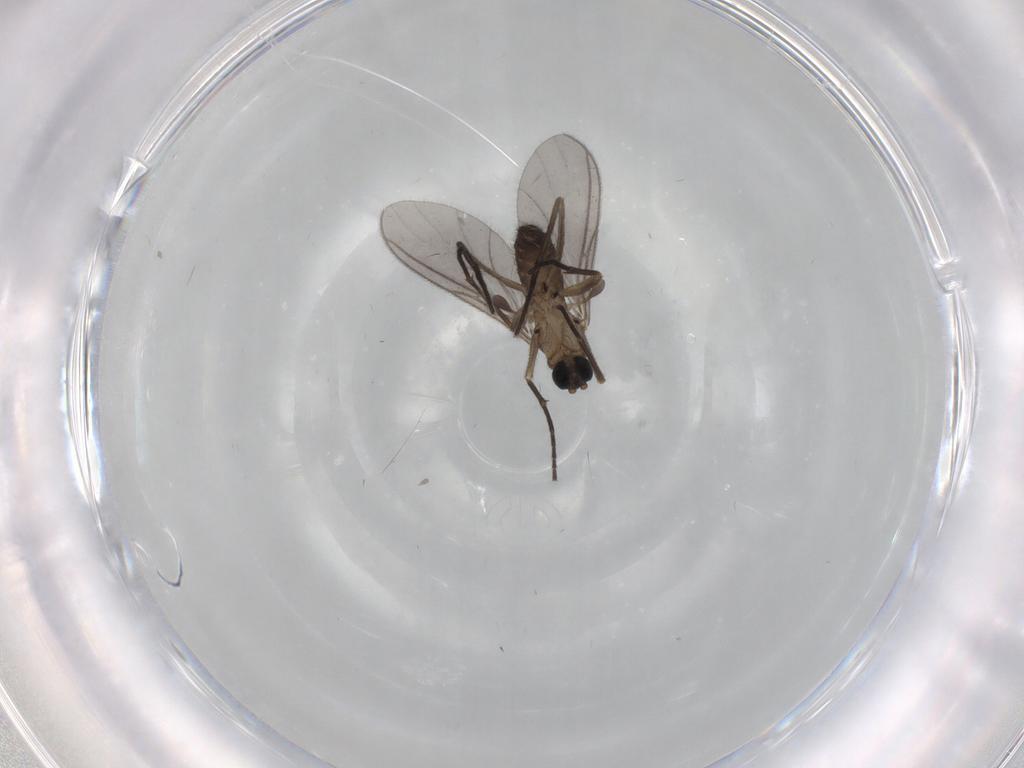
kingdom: Animalia
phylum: Arthropoda
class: Insecta
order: Diptera
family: Sciaridae
